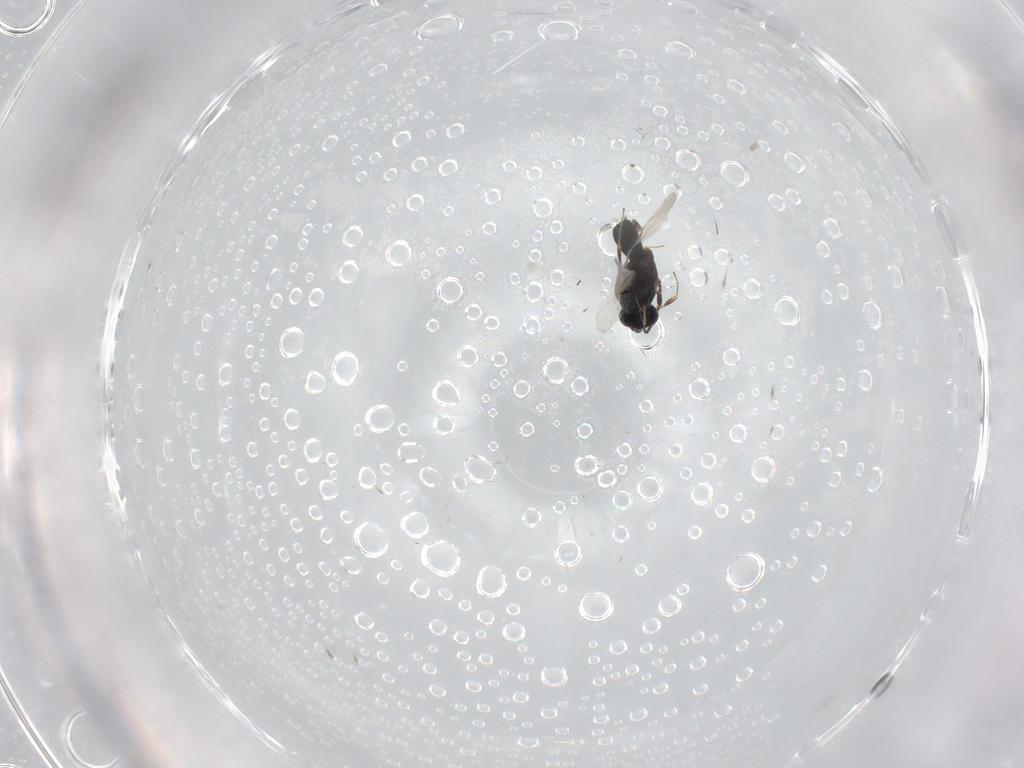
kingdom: Animalia
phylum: Arthropoda
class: Insecta
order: Hymenoptera
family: Scelionidae
